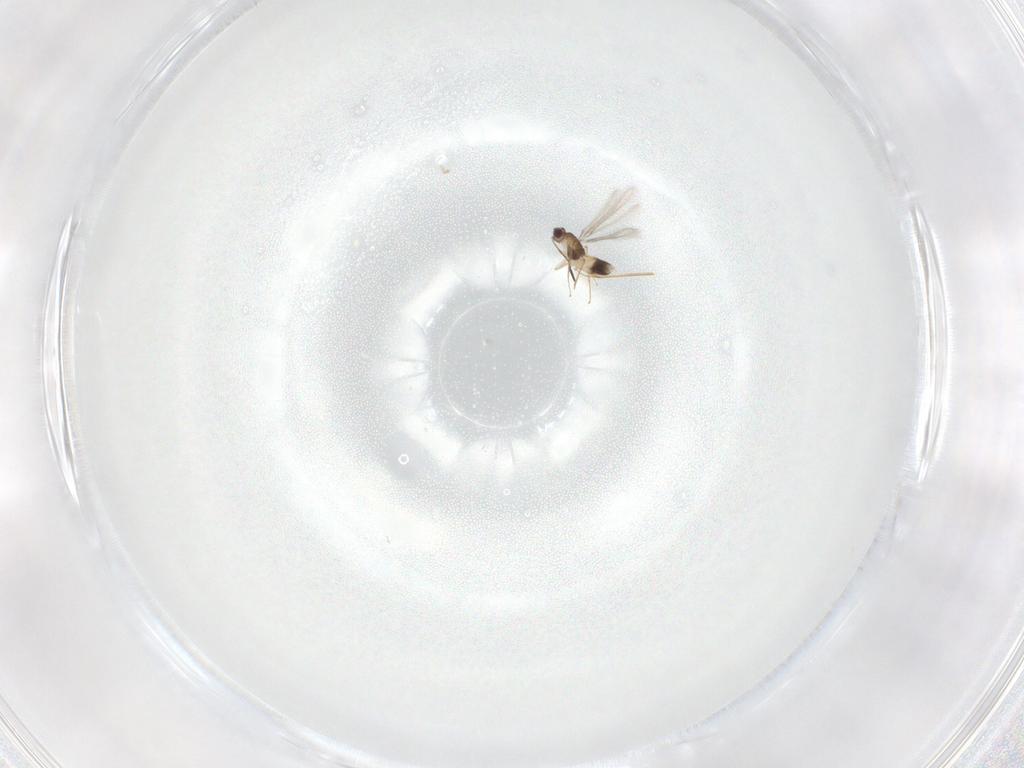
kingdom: Animalia
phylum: Arthropoda
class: Insecta
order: Hymenoptera
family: Mymaridae
